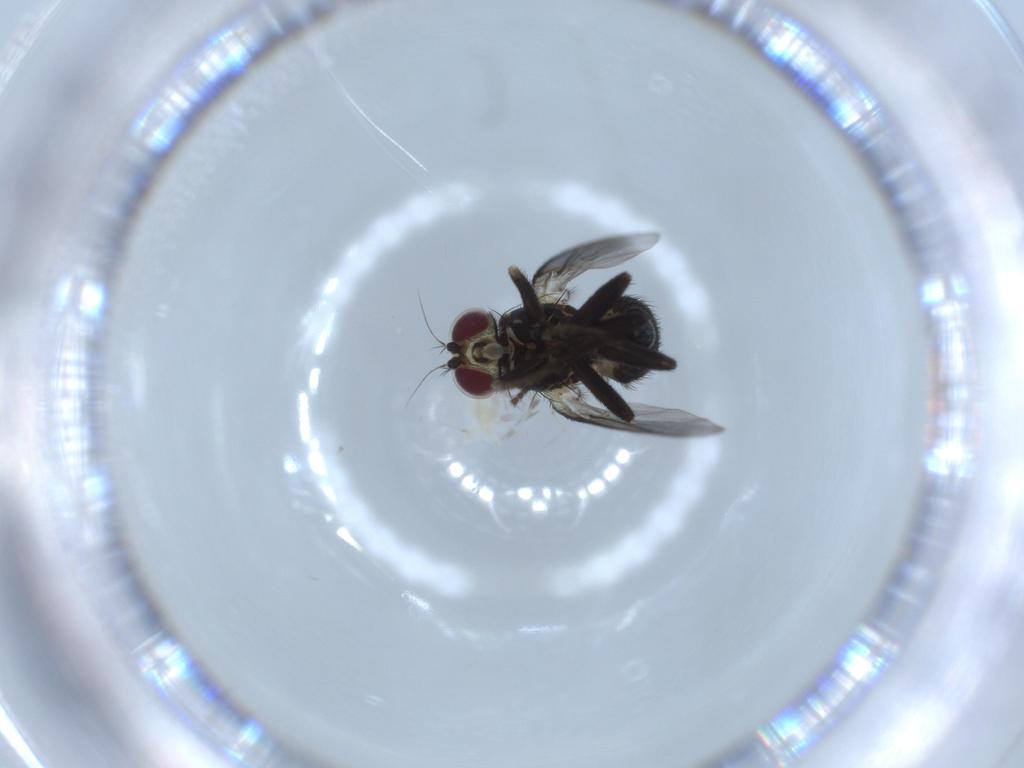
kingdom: Animalia
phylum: Arthropoda
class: Insecta
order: Diptera
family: Agromyzidae
